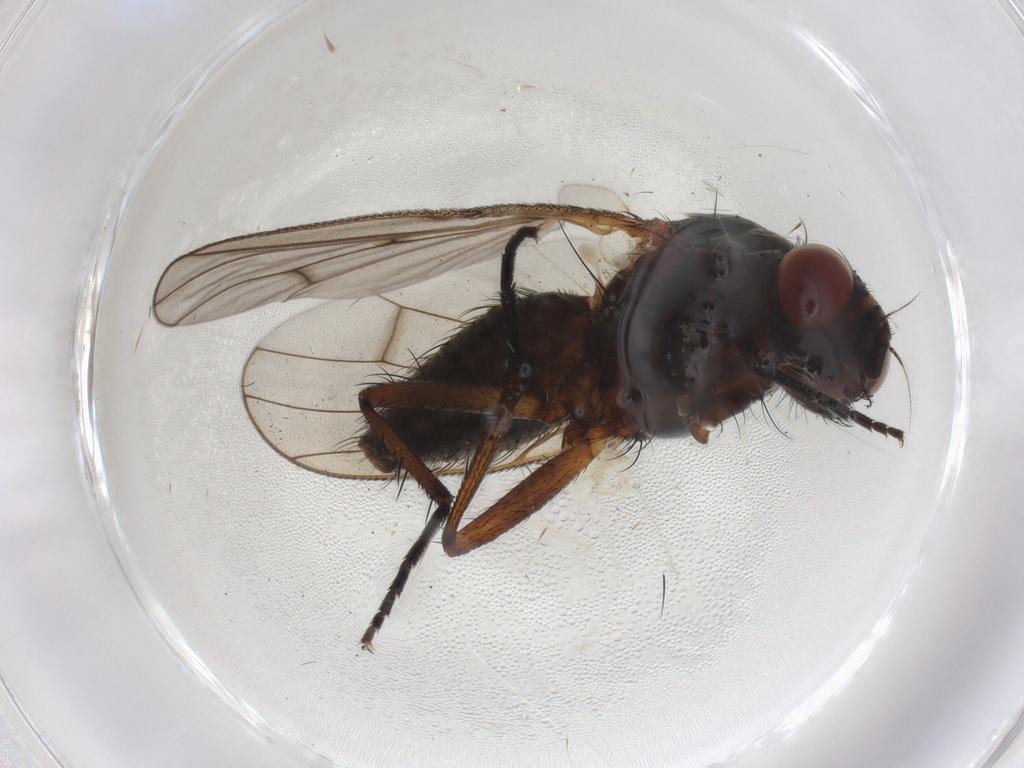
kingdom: Animalia
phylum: Arthropoda
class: Insecta
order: Diptera
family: Anthomyiidae
